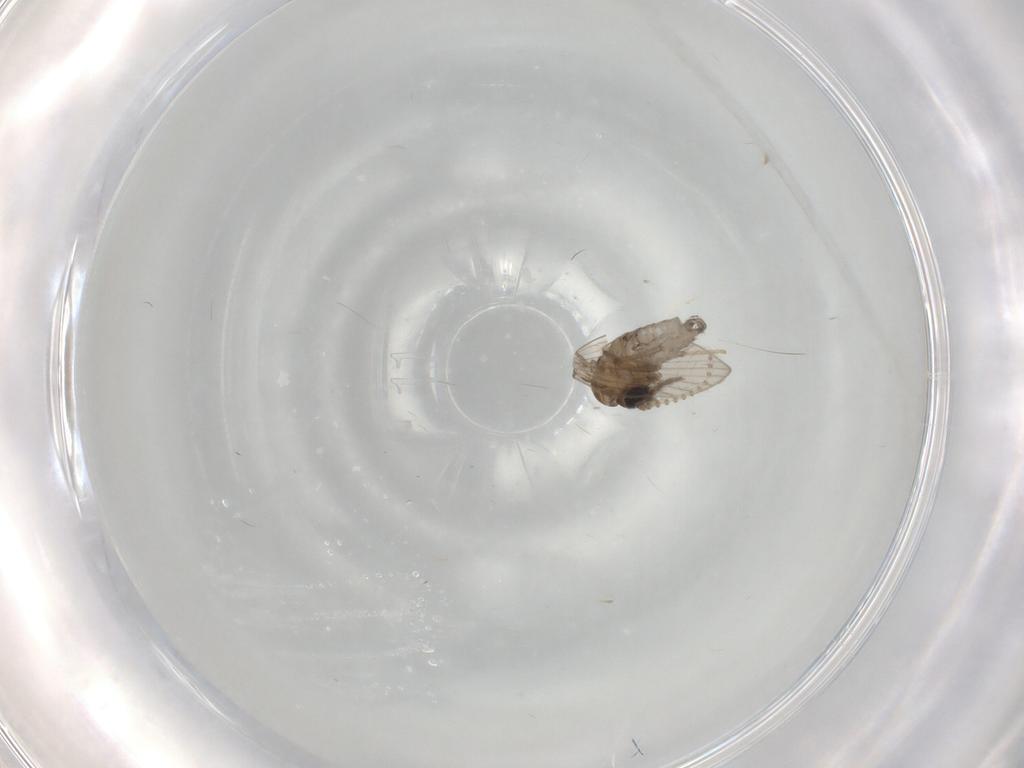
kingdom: Animalia
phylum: Arthropoda
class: Insecta
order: Diptera
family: Psychodidae
